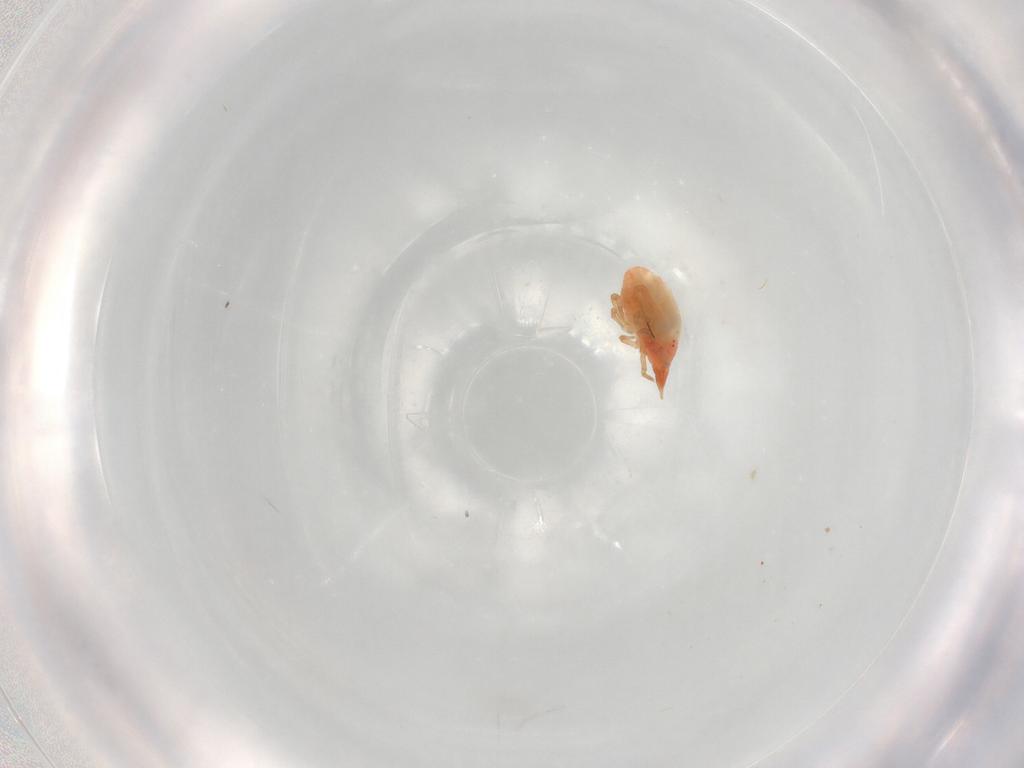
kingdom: Animalia
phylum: Arthropoda
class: Arachnida
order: Trombidiformes
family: Bdellidae
